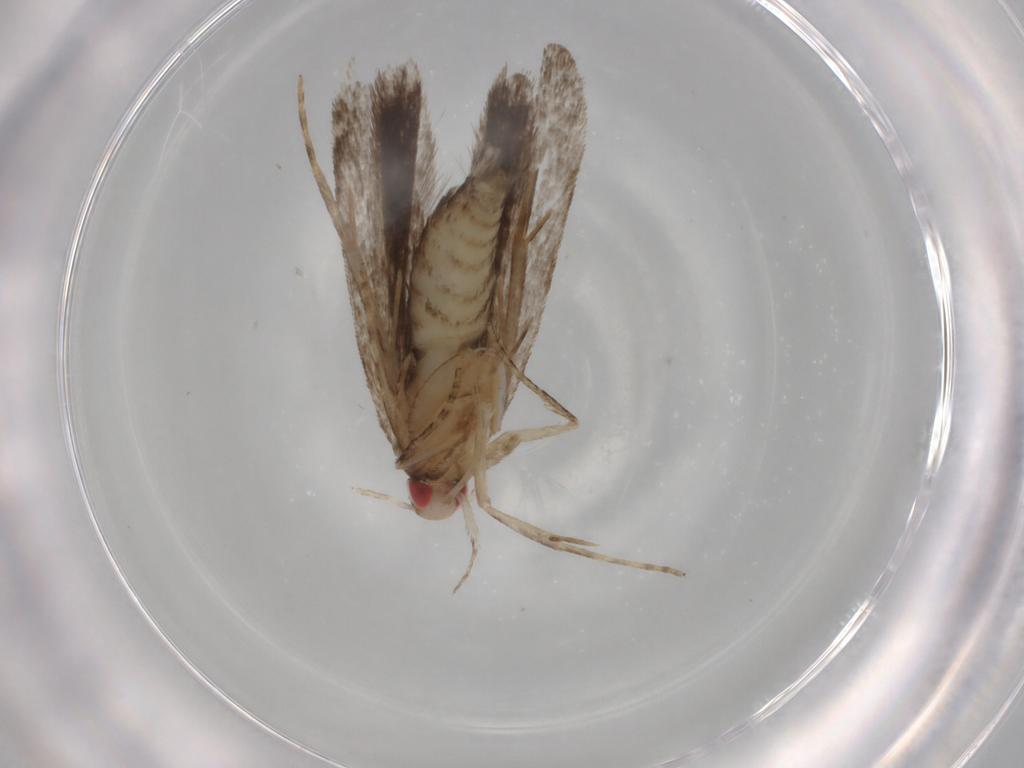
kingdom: Animalia
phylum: Arthropoda
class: Insecta
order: Lepidoptera
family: Gelechiidae
